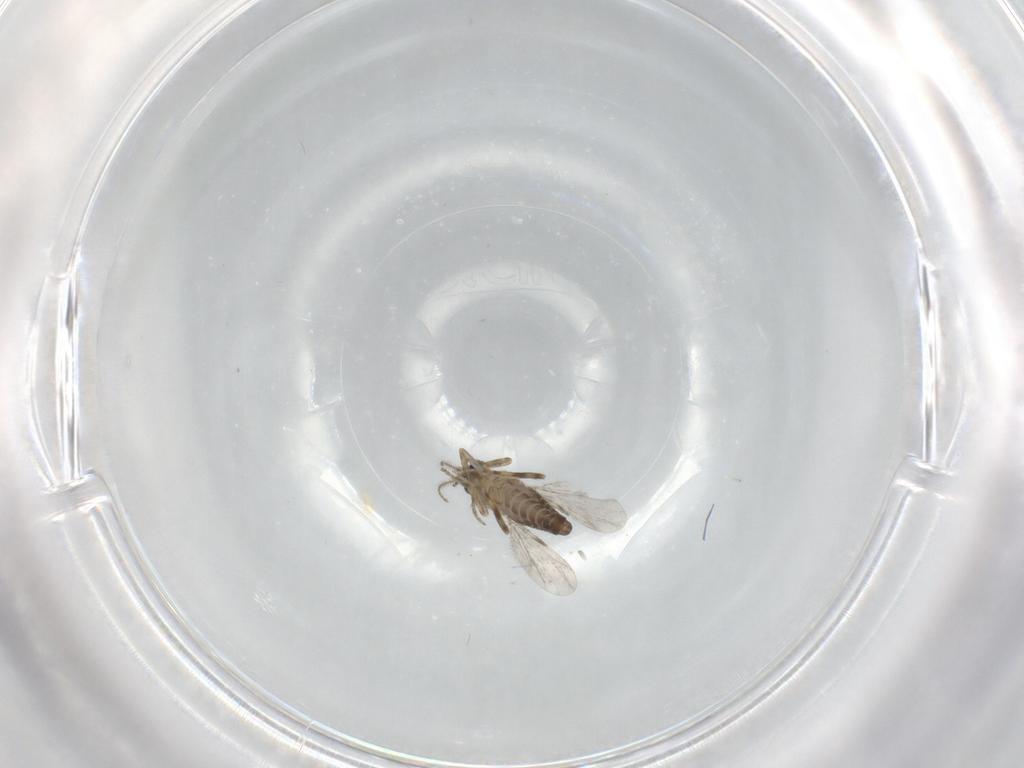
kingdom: Animalia
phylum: Arthropoda
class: Insecta
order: Diptera
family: Ceratopogonidae
